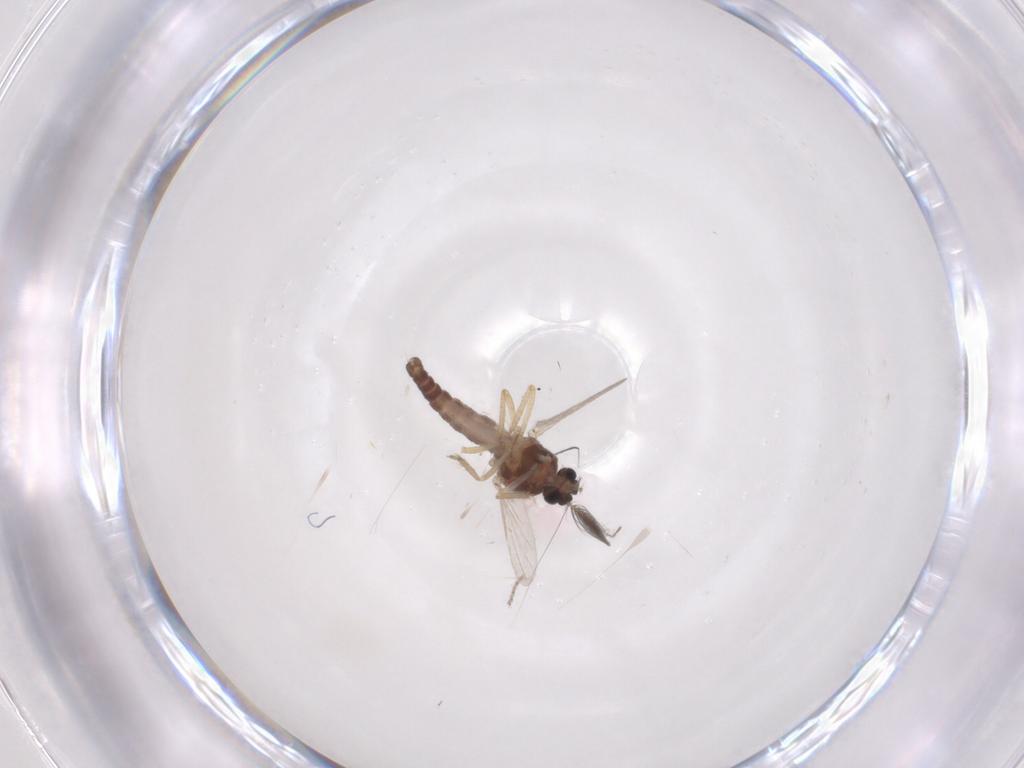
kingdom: Animalia
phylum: Arthropoda
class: Insecta
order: Diptera
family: Ceratopogonidae
